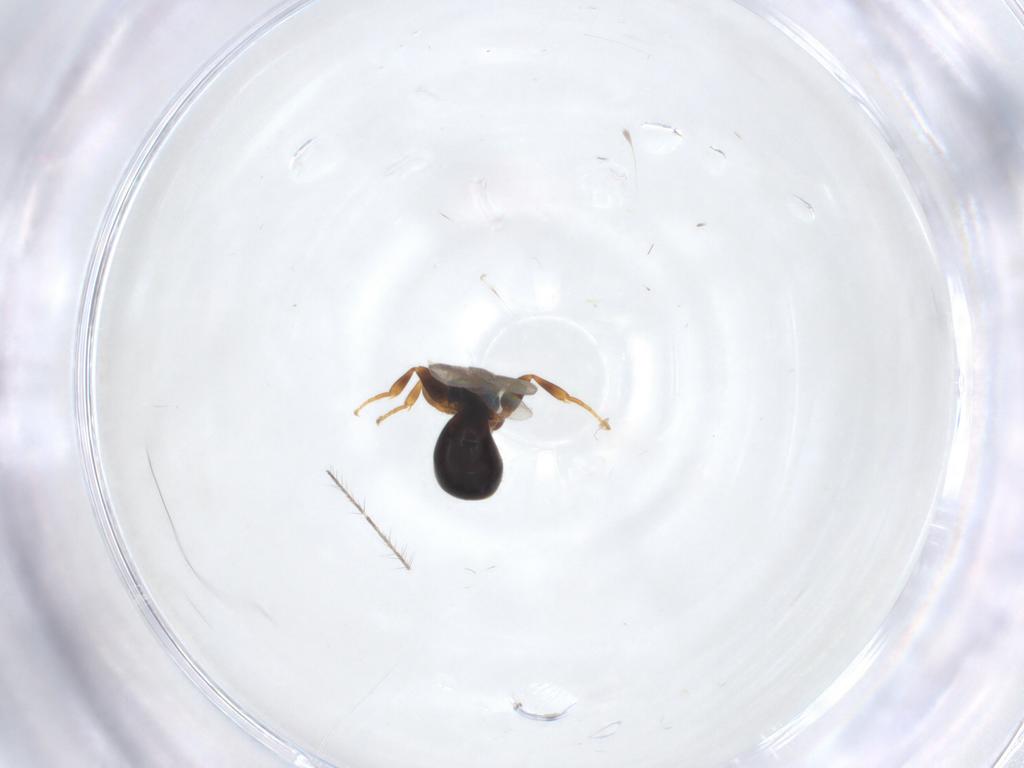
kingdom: Animalia
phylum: Arthropoda
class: Insecta
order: Hymenoptera
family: Bethylidae
